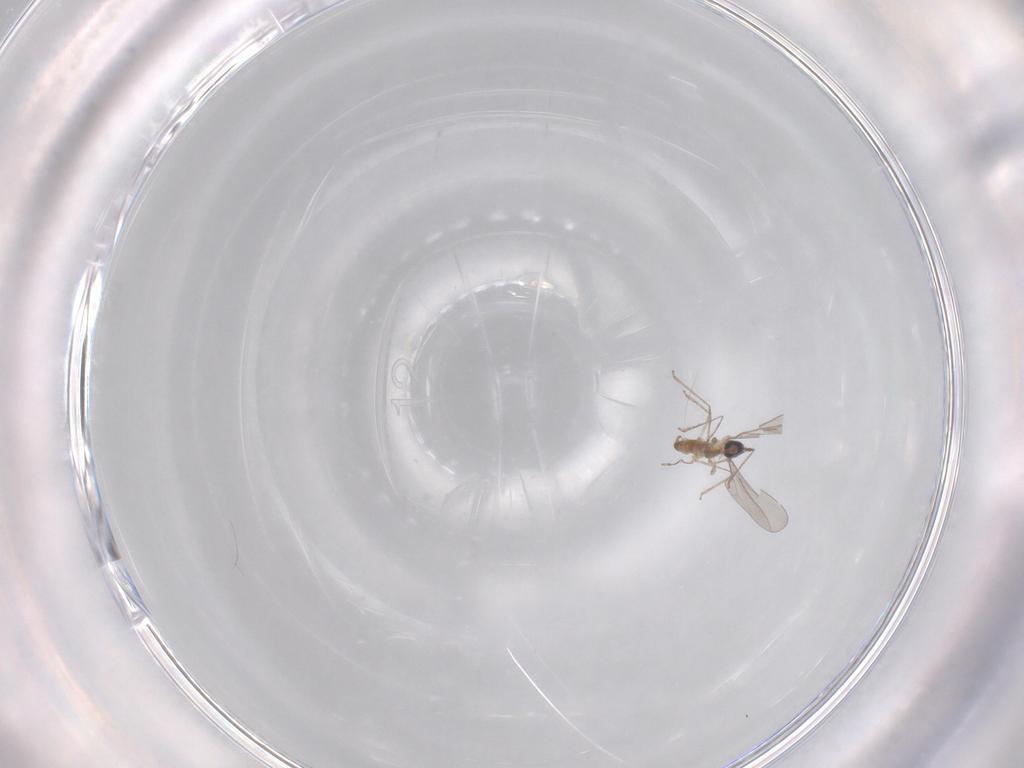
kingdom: Animalia
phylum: Arthropoda
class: Insecta
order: Diptera
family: Cecidomyiidae
